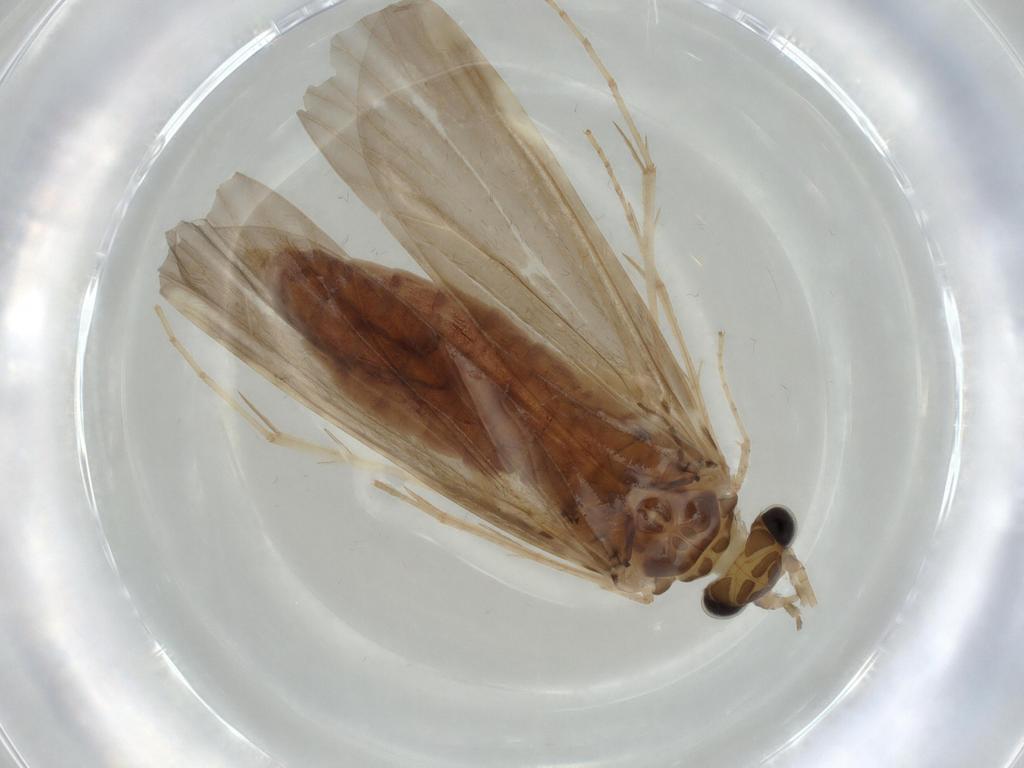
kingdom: Animalia
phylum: Arthropoda
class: Insecta
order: Trichoptera
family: Ecnomidae
